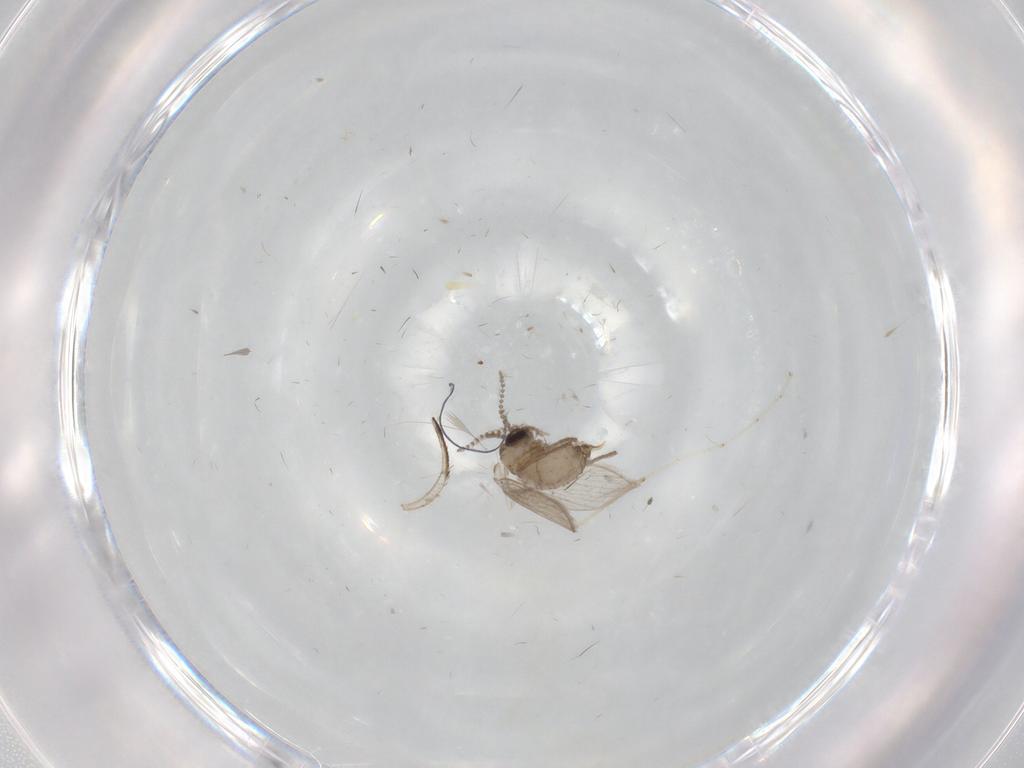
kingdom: Animalia
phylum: Arthropoda
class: Insecta
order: Diptera
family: Psychodidae
